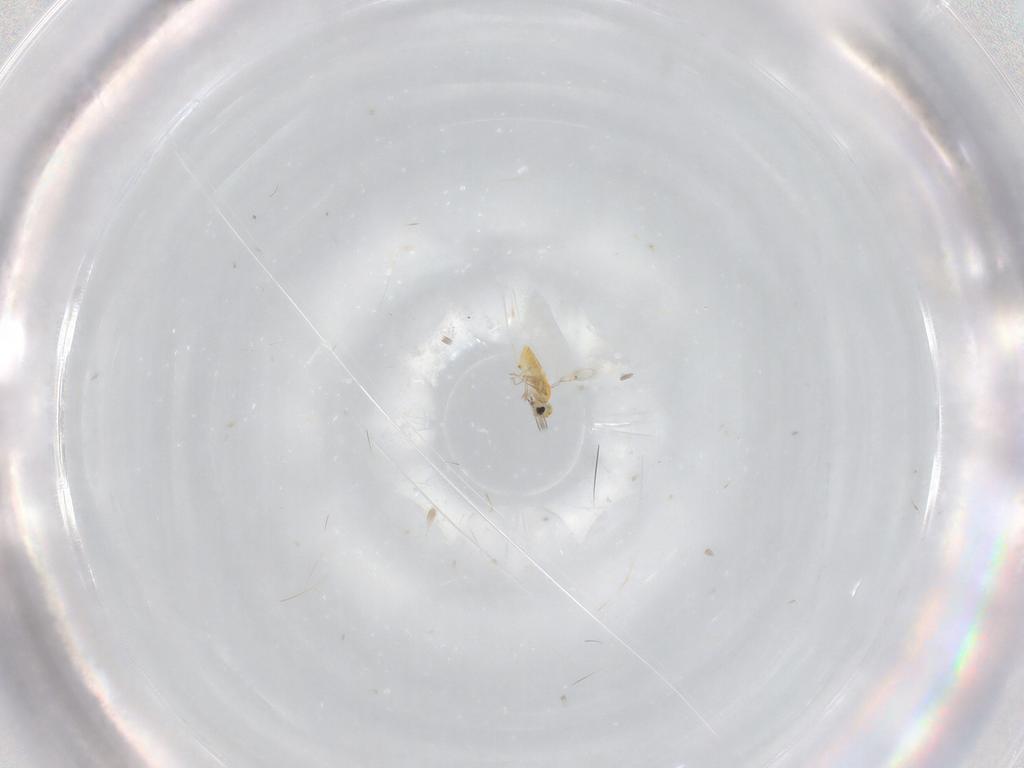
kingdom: Animalia
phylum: Arthropoda
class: Insecta
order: Hymenoptera
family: Trichogrammatidae
